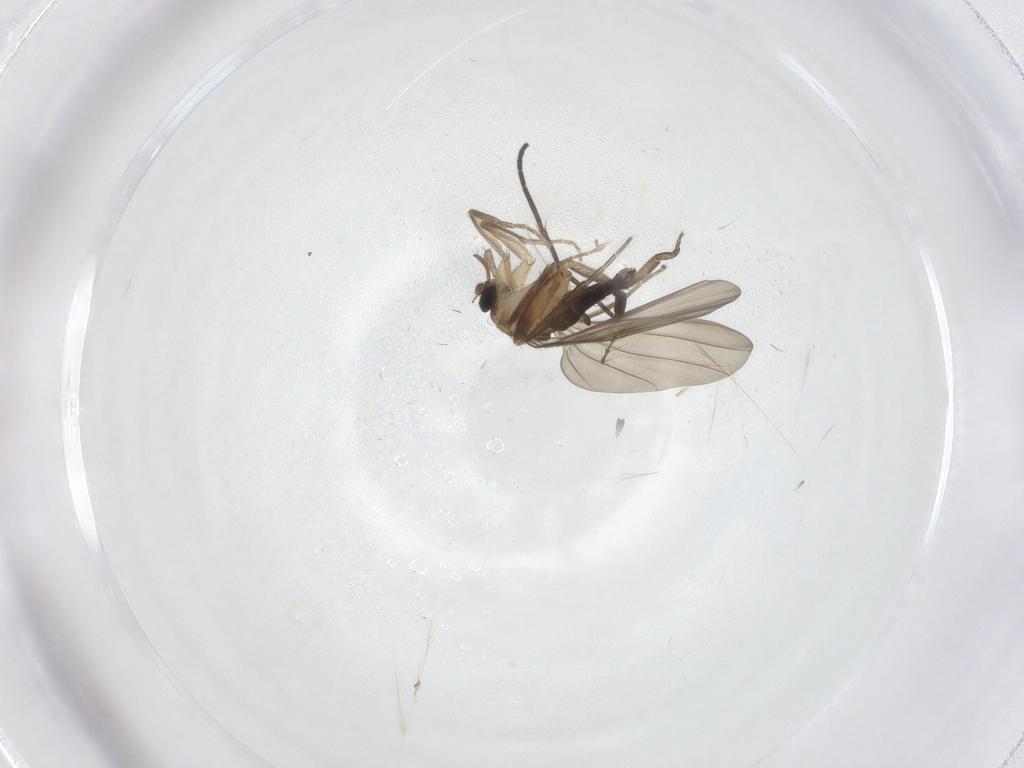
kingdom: Animalia
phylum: Arthropoda
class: Insecta
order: Diptera
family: Sciaridae
